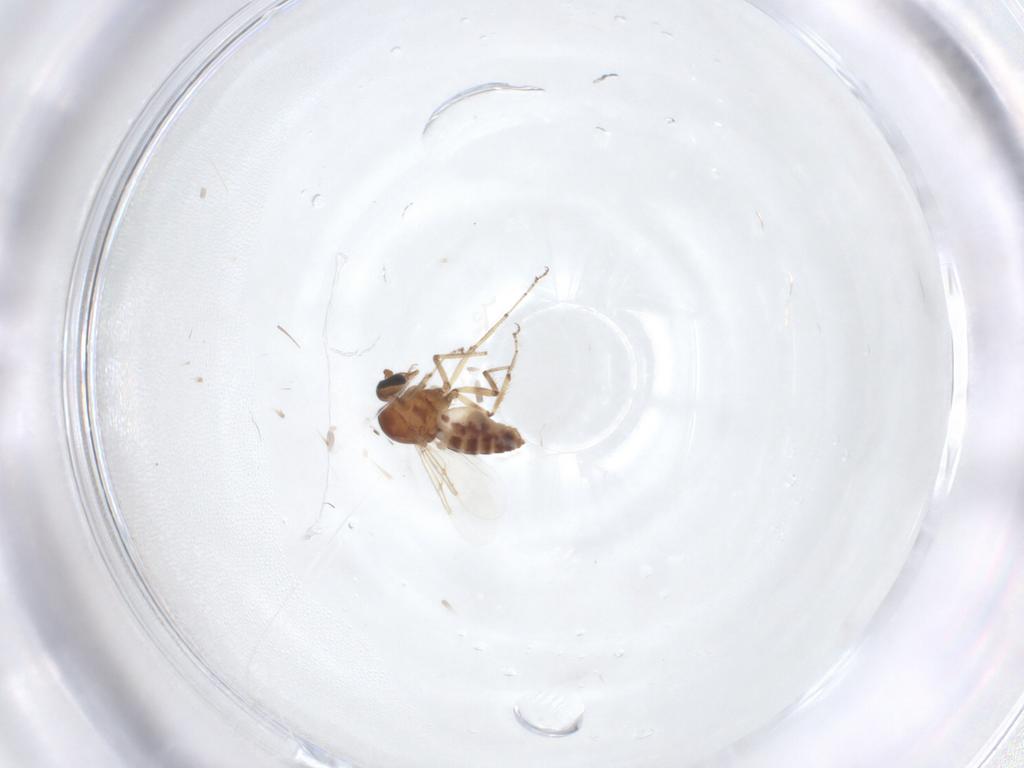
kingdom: Animalia
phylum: Arthropoda
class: Insecta
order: Diptera
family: Ceratopogonidae
